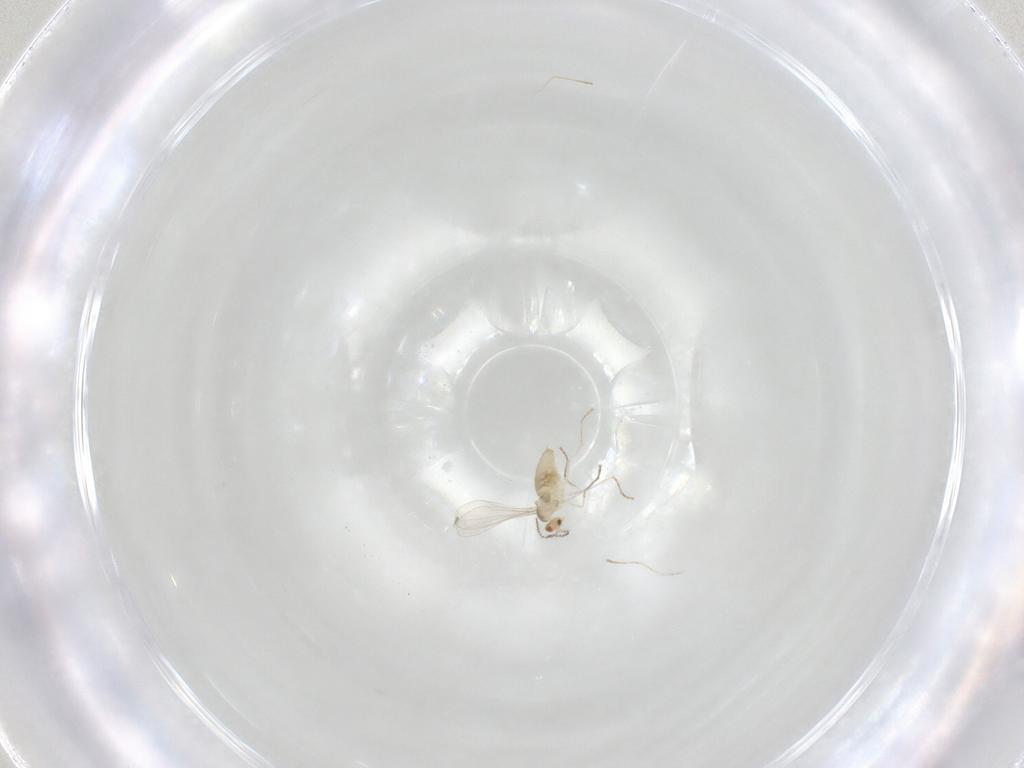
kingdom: Animalia
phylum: Arthropoda
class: Insecta
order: Diptera
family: Cecidomyiidae
